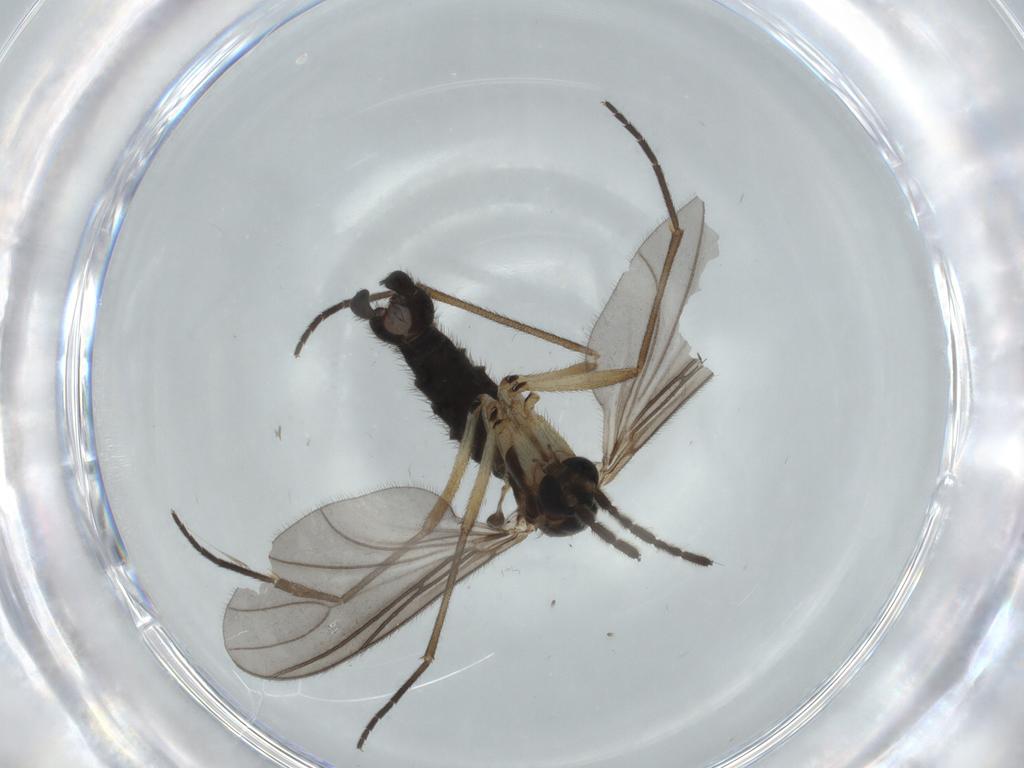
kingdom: Animalia
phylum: Arthropoda
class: Insecta
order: Diptera
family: Sciaridae
